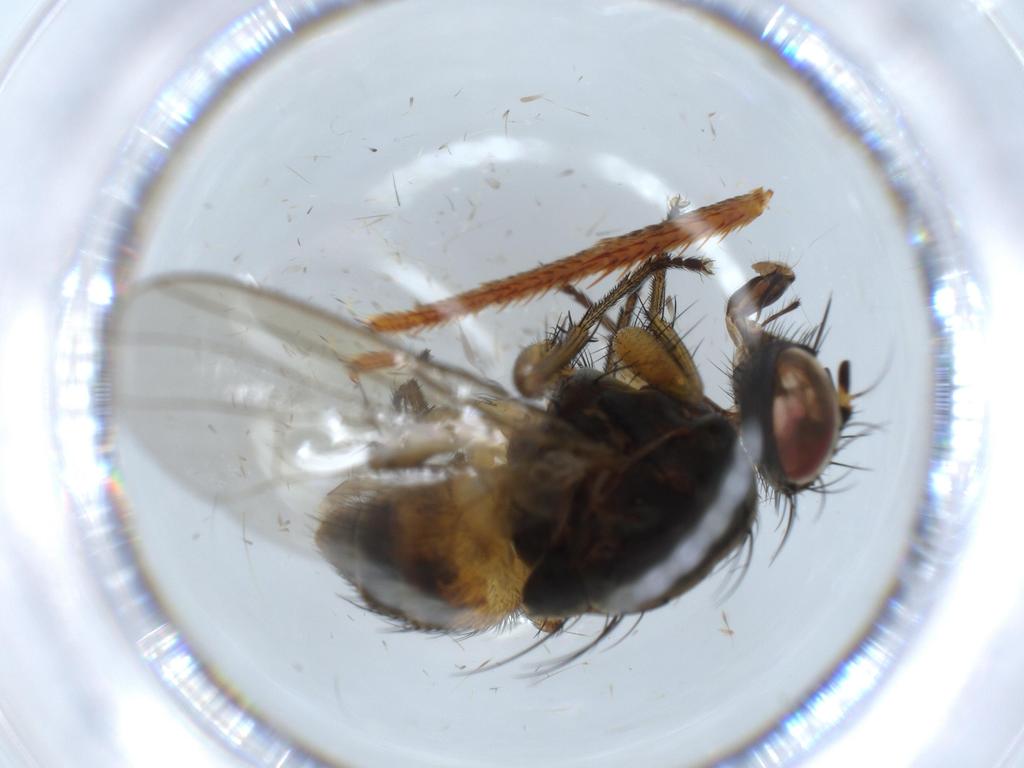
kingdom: Animalia
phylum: Arthropoda
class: Insecta
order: Diptera
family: Muscidae
